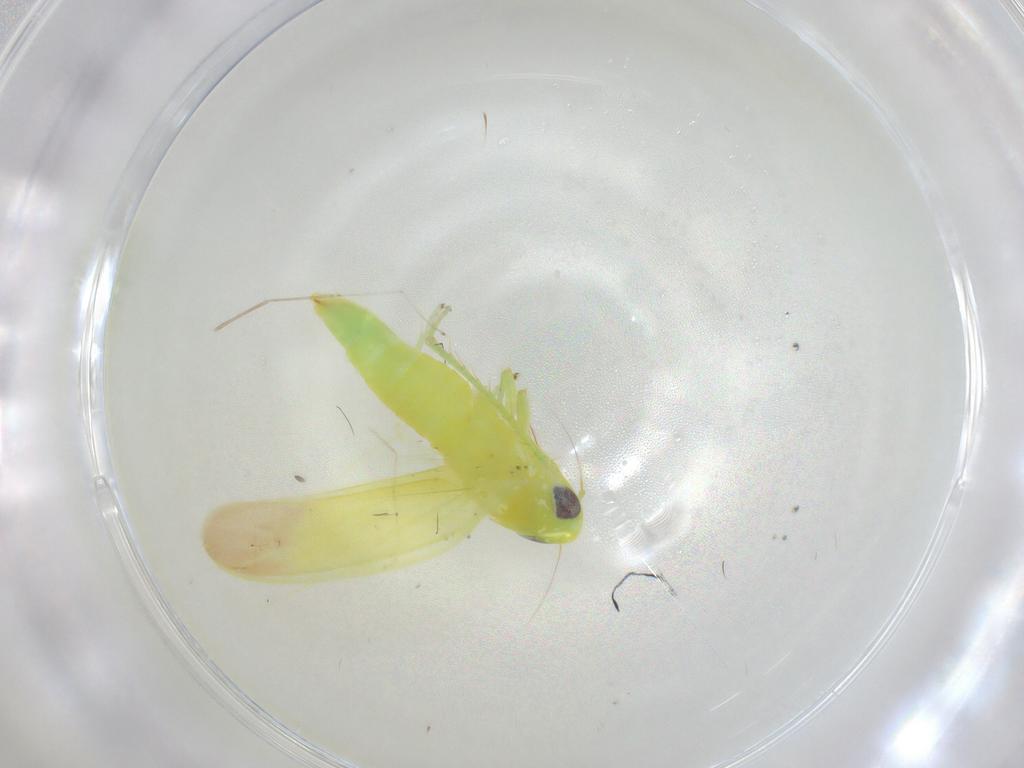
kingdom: Animalia
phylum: Arthropoda
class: Insecta
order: Hemiptera
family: Cicadellidae
